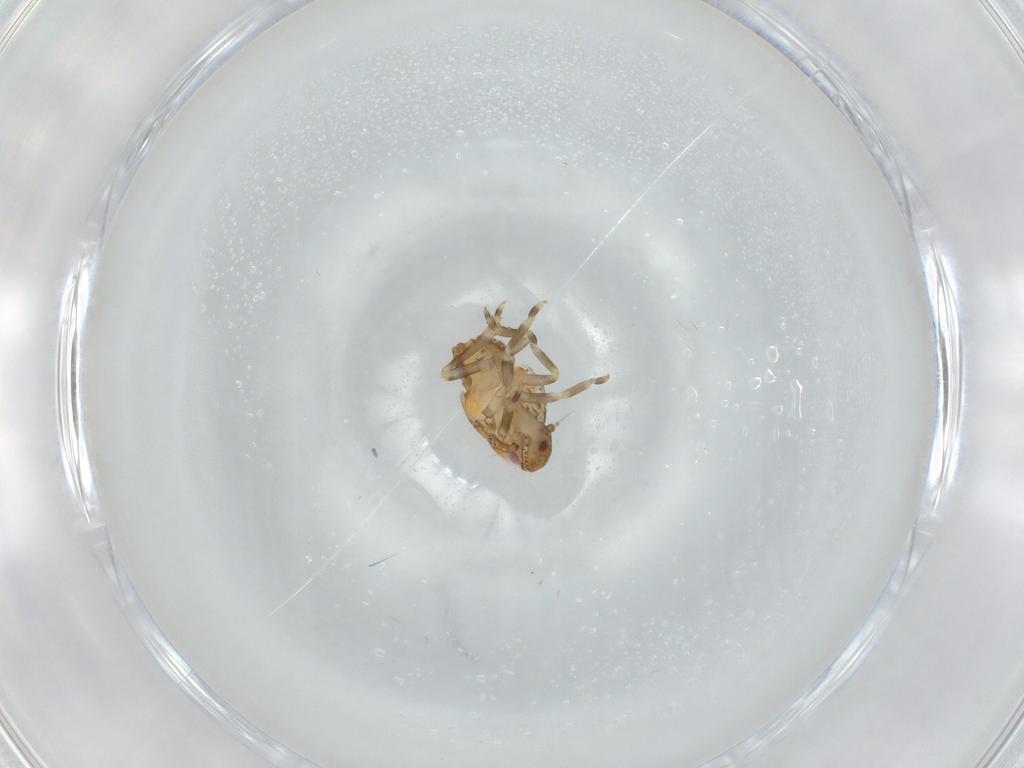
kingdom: Animalia
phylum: Arthropoda
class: Insecta
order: Hemiptera
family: Flatidae
